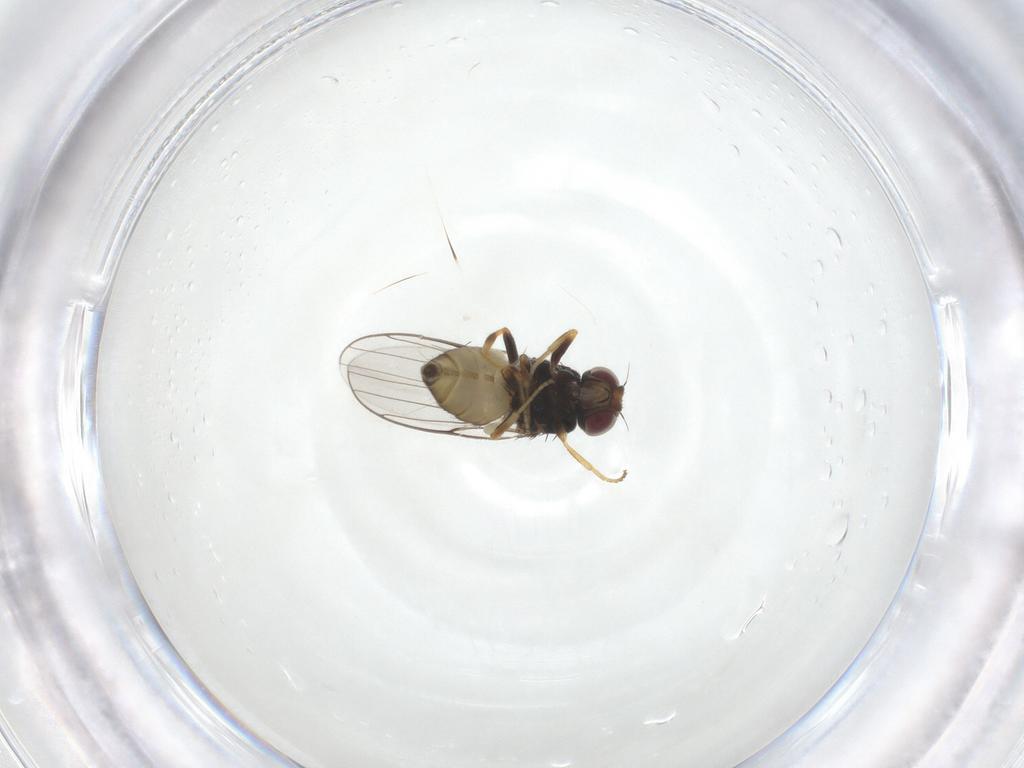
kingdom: Animalia
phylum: Arthropoda
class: Insecta
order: Diptera
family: Chloropidae
